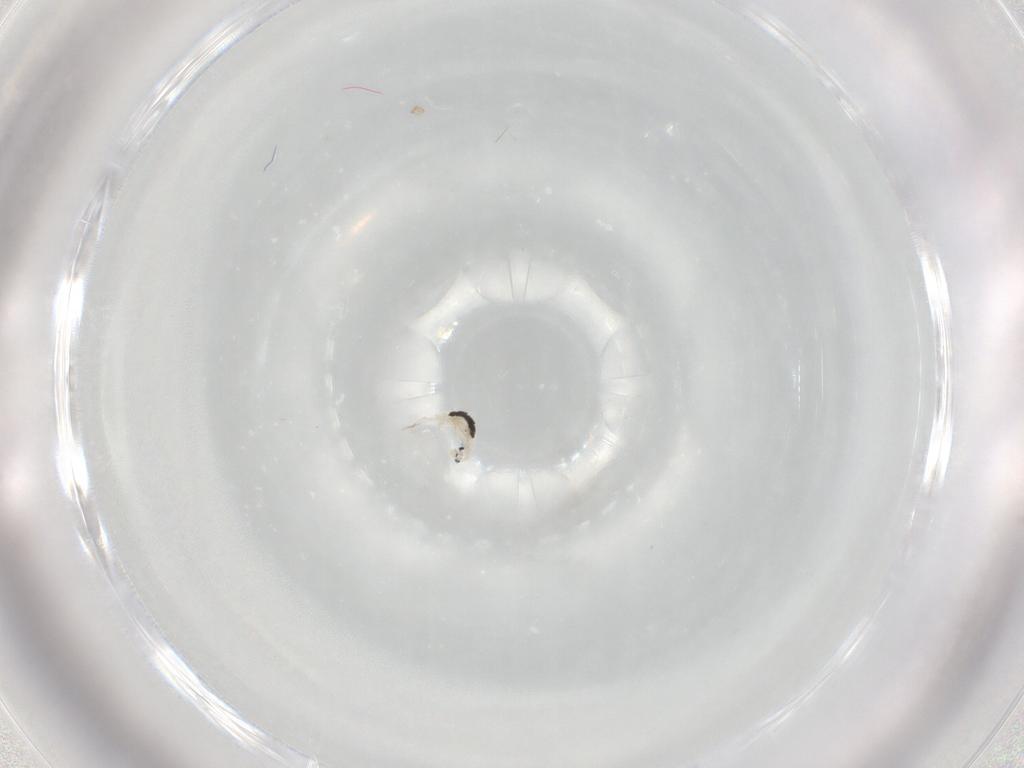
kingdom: Animalia
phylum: Arthropoda
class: Collembola
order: Entomobryomorpha
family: Entomobryidae
